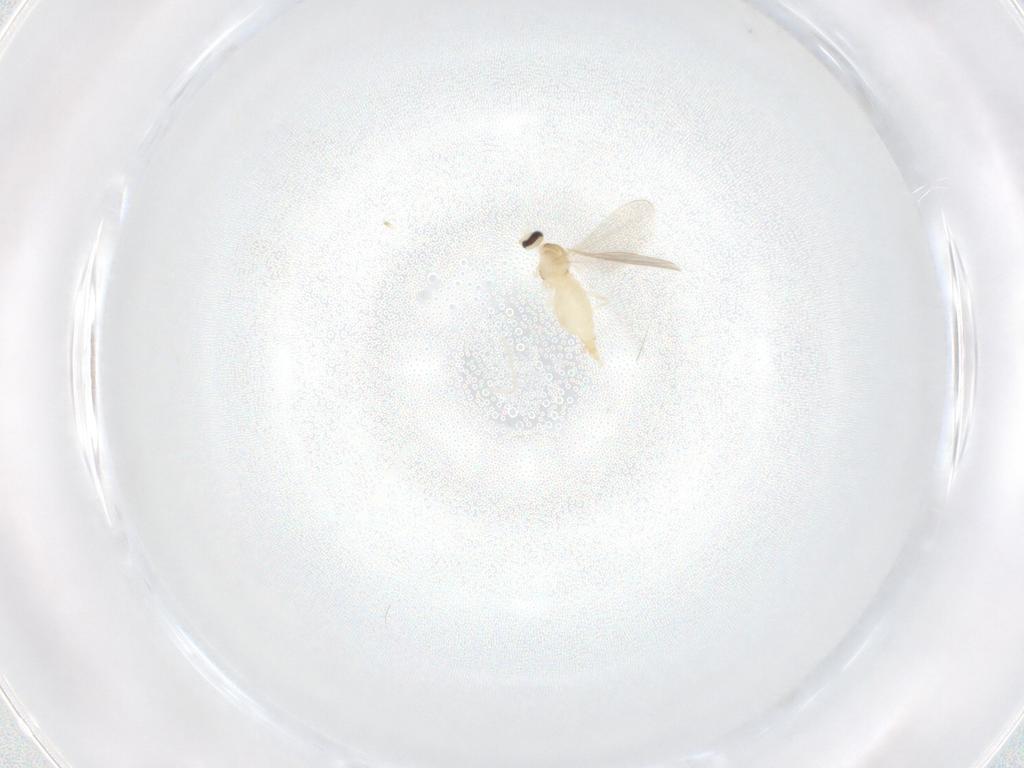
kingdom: Animalia
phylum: Arthropoda
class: Insecta
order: Diptera
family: Cecidomyiidae
